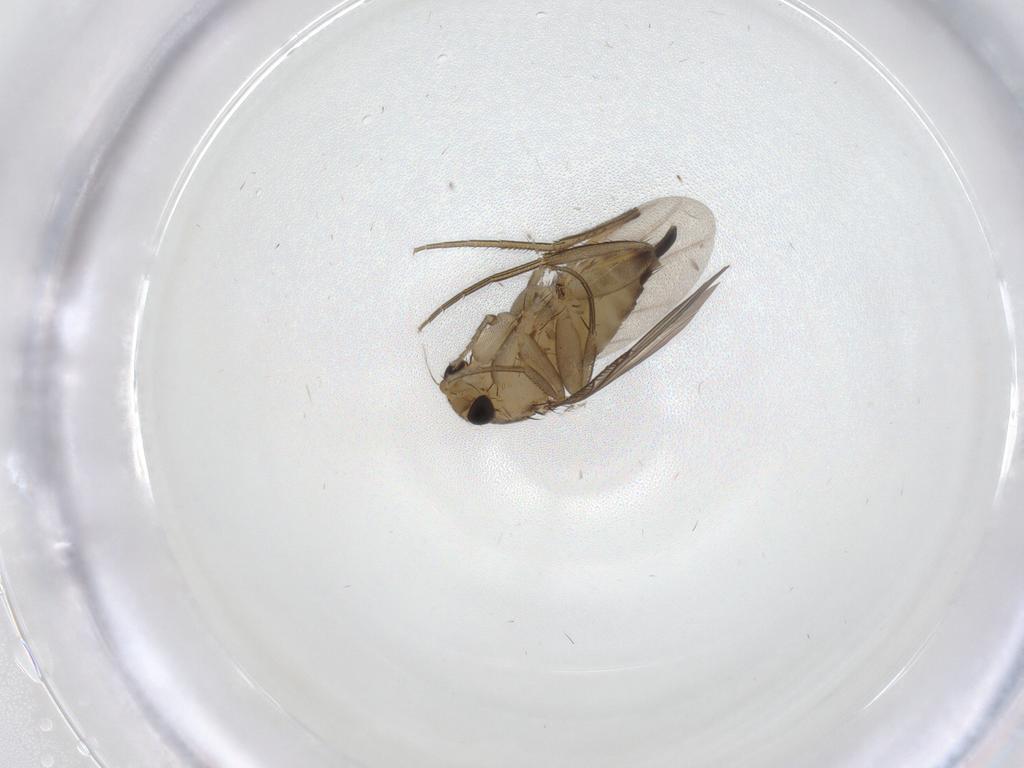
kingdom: Animalia
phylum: Arthropoda
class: Insecta
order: Diptera
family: Phoridae
